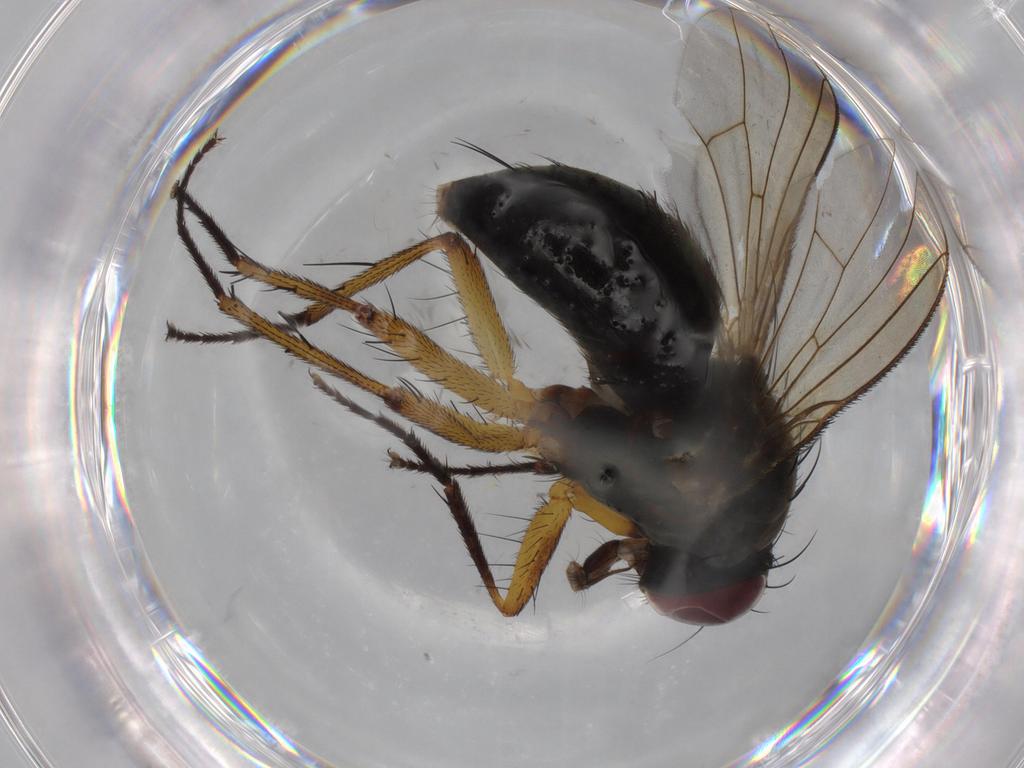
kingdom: Animalia
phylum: Arthropoda
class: Insecta
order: Diptera
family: Muscidae
